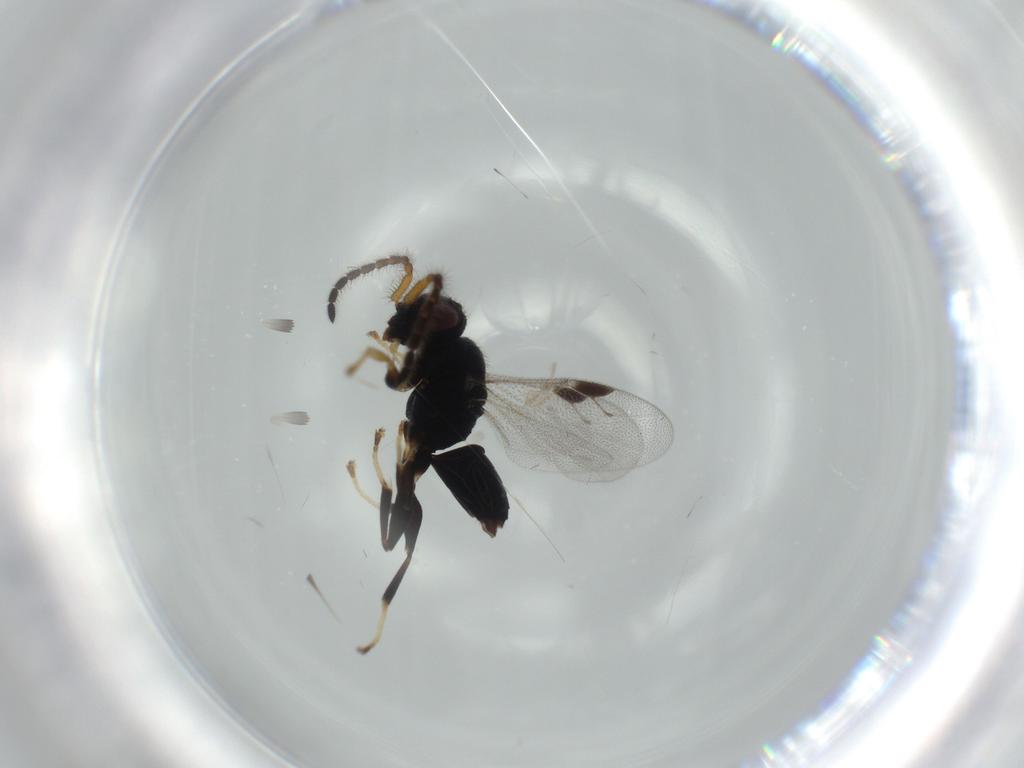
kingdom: Animalia
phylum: Arthropoda
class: Insecta
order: Hymenoptera
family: Dryinidae
